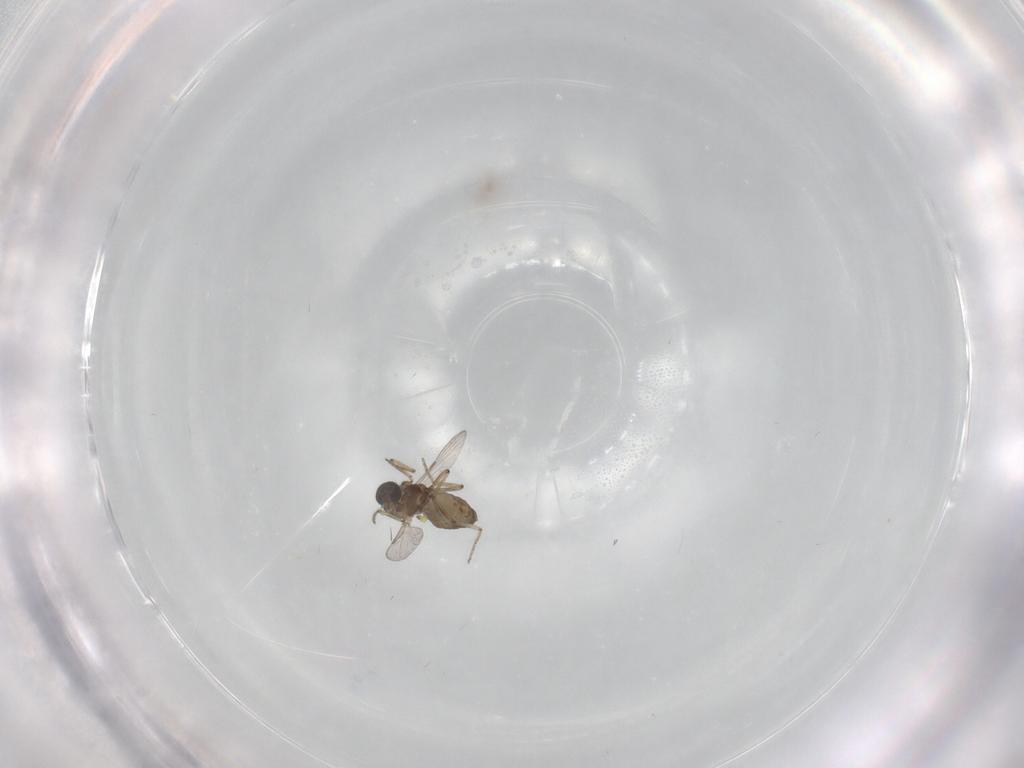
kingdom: Animalia
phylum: Arthropoda
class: Insecta
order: Diptera
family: Ceratopogonidae
